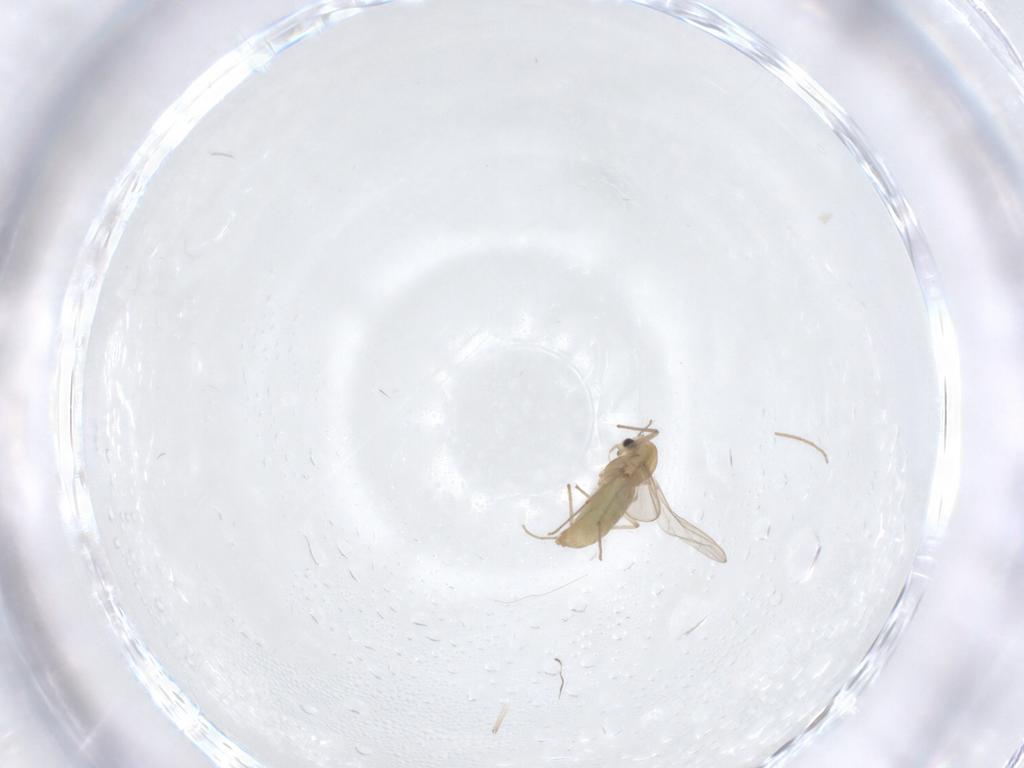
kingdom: Animalia
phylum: Arthropoda
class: Insecta
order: Diptera
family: Chironomidae
